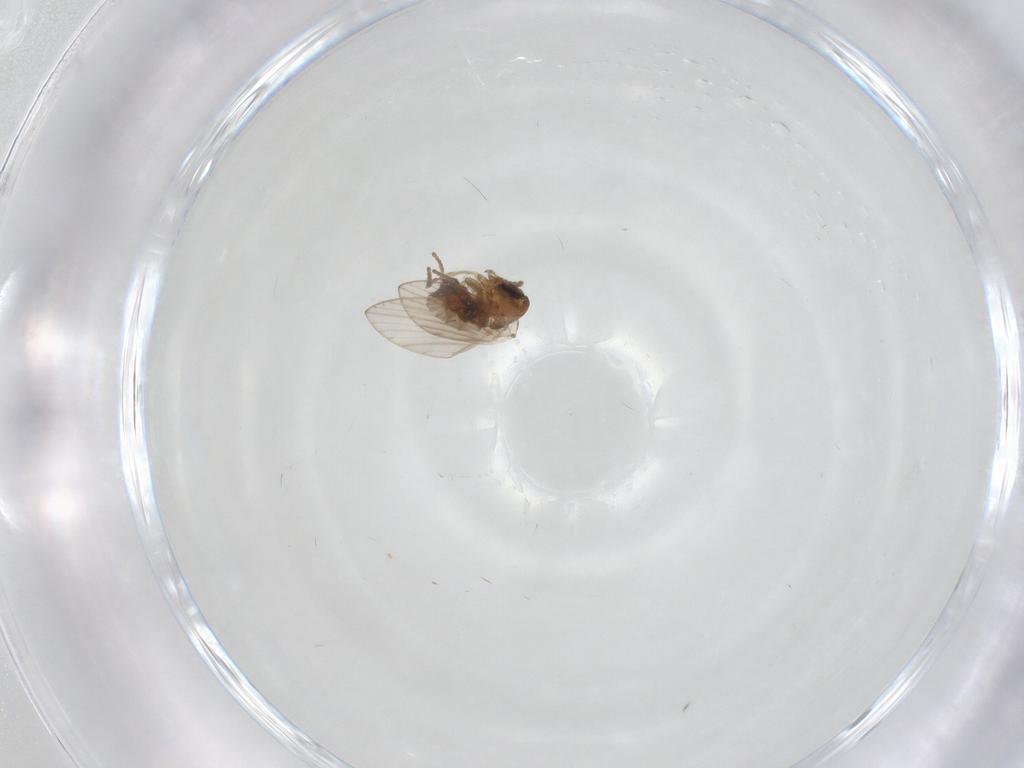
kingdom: Animalia
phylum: Arthropoda
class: Insecta
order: Diptera
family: Psychodidae
